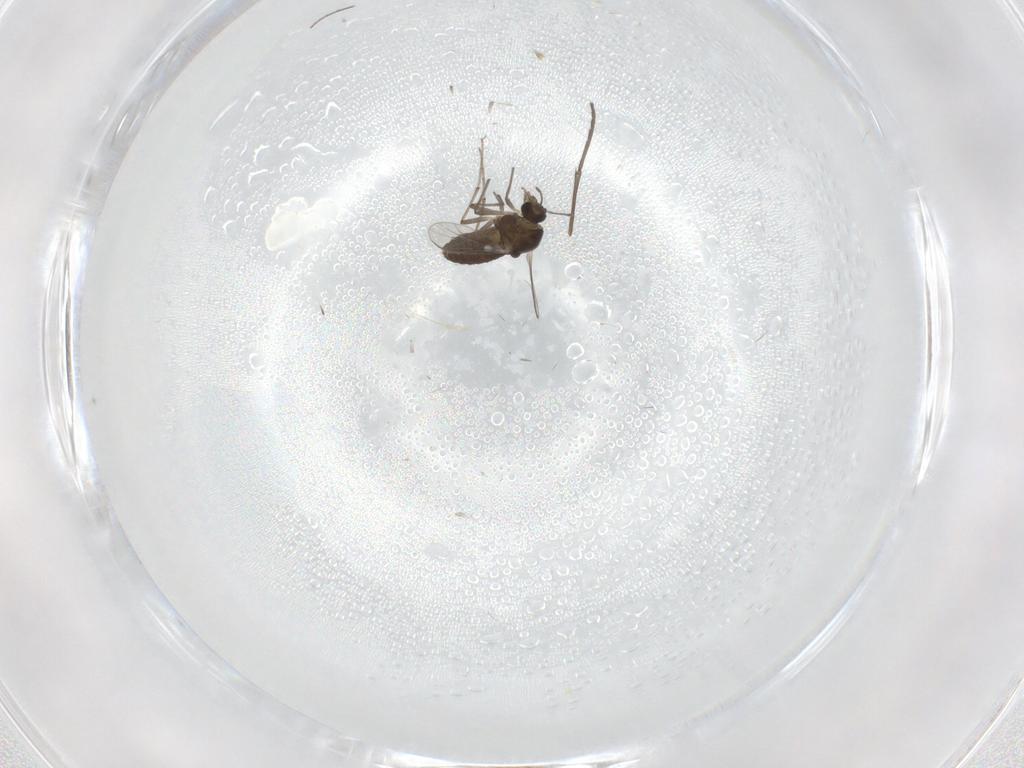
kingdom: Animalia
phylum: Arthropoda
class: Insecta
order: Diptera
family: Chironomidae
